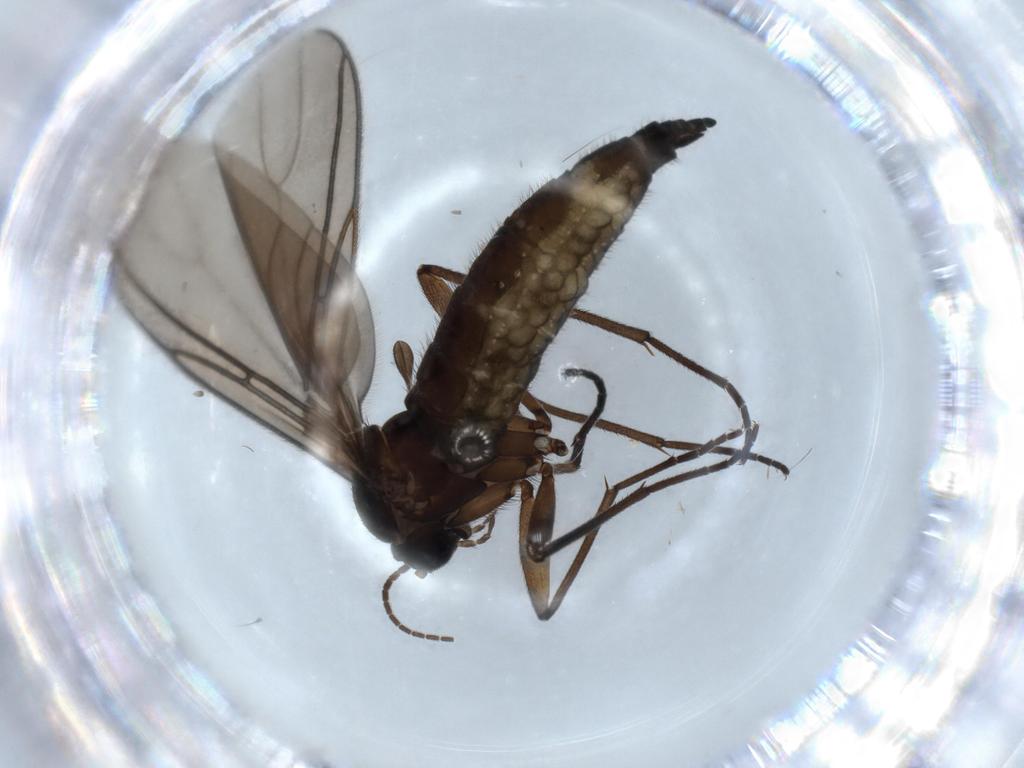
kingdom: Animalia
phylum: Arthropoda
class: Insecta
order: Diptera
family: Sciaridae
